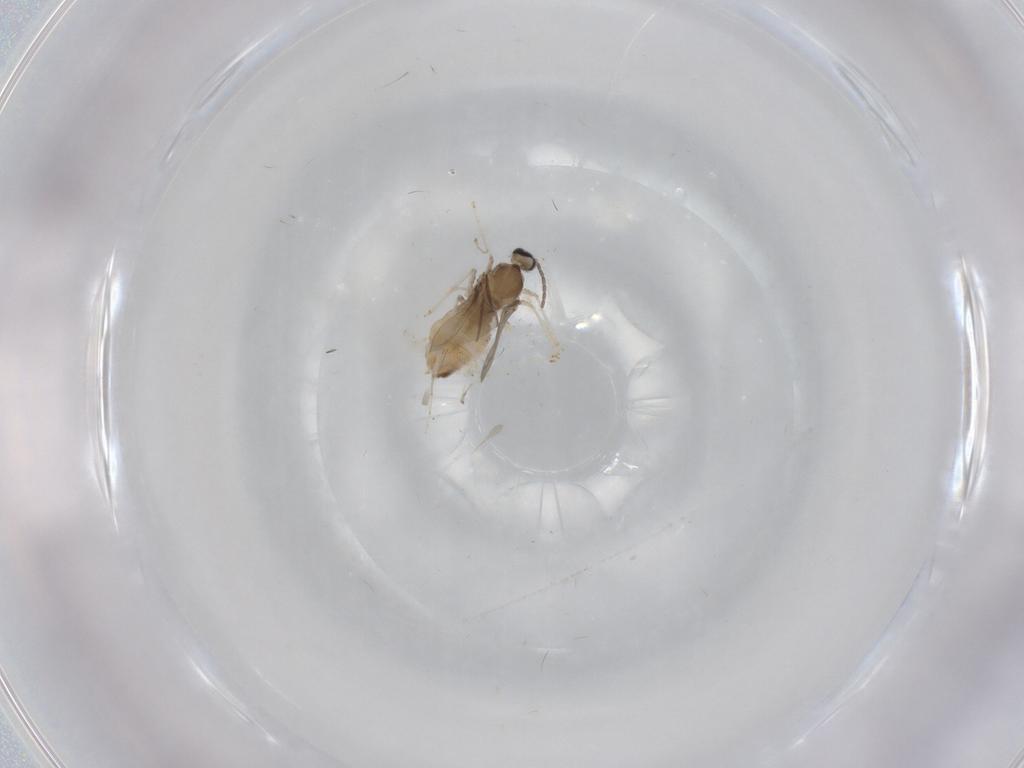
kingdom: Animalia
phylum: Arthropoda
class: Insecta
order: Diptera
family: Cecidomyiidae
